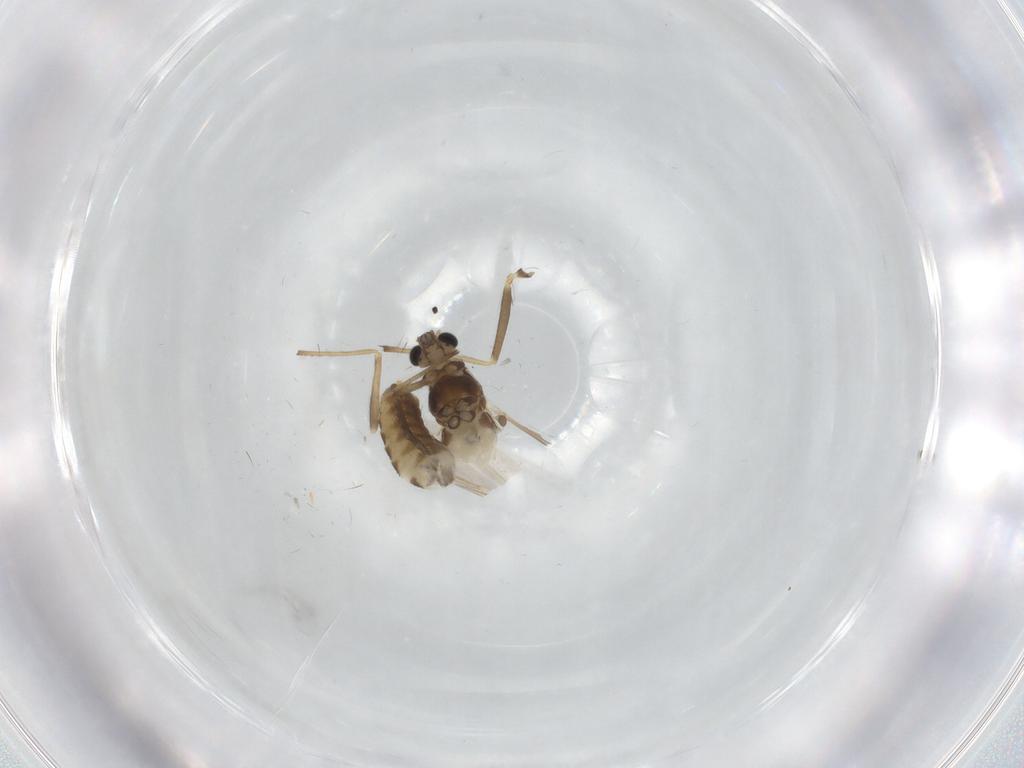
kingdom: Animalia
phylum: Arthropoda
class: Insecta
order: Diptera
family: Chironomidae
